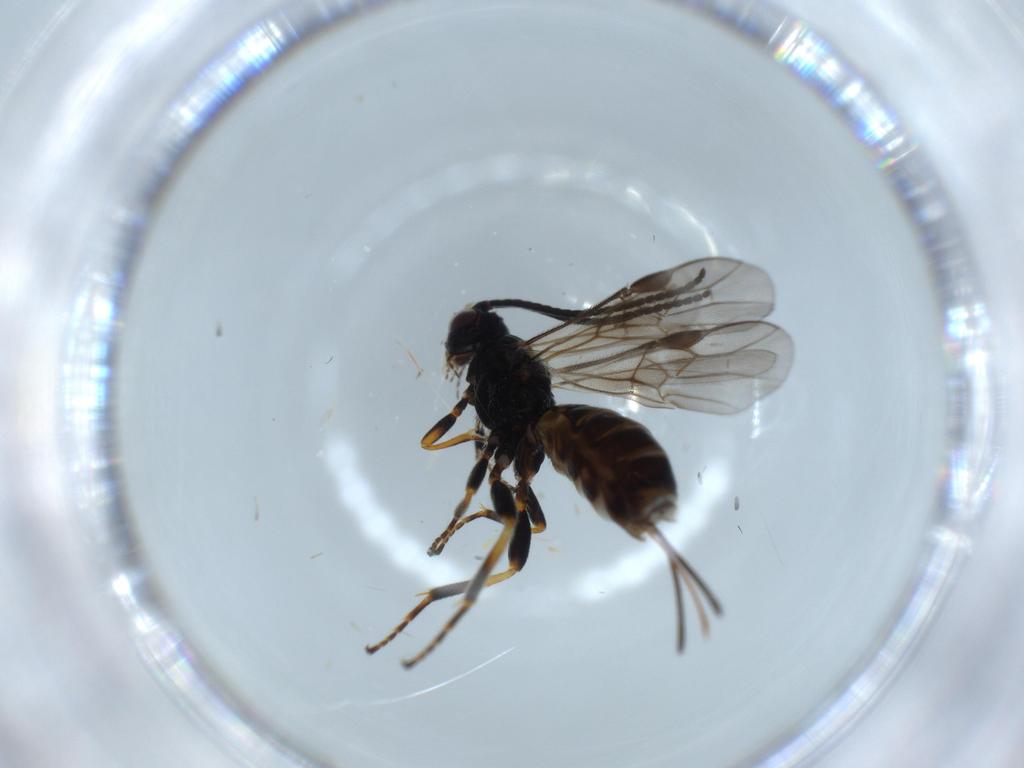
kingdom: Animalia
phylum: Arthropoda
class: Insecta
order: Hymenoptera
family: Braconidae
